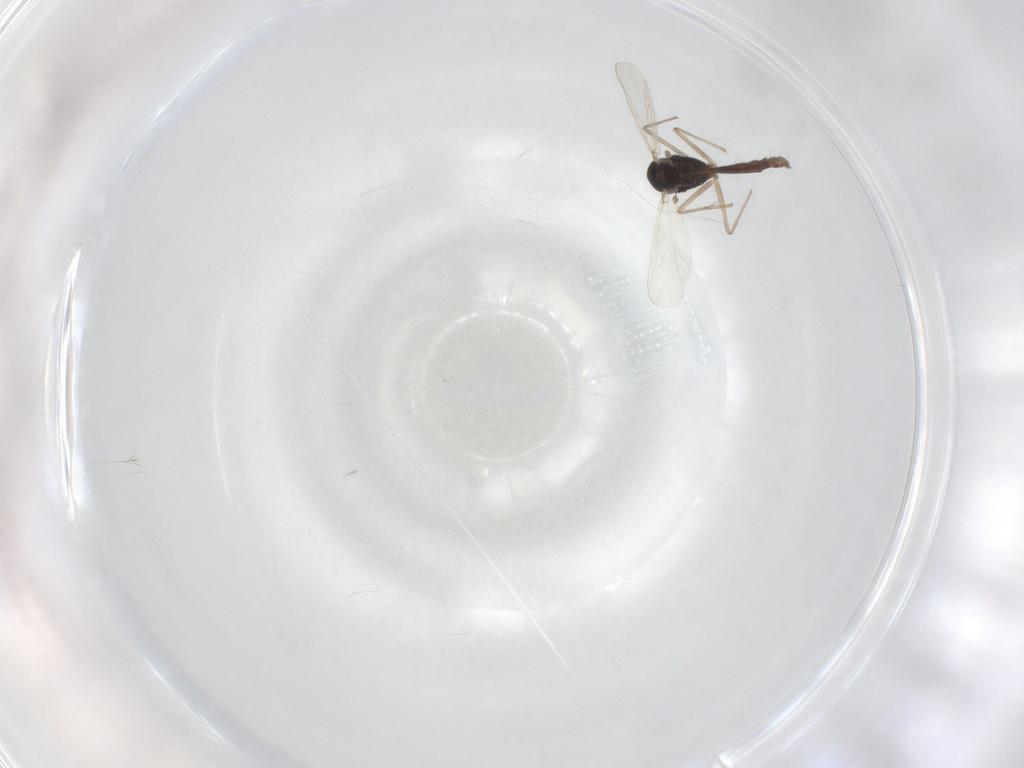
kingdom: Animalia
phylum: Arthropoda
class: Insecta
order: Diptera
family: Chironomidae
